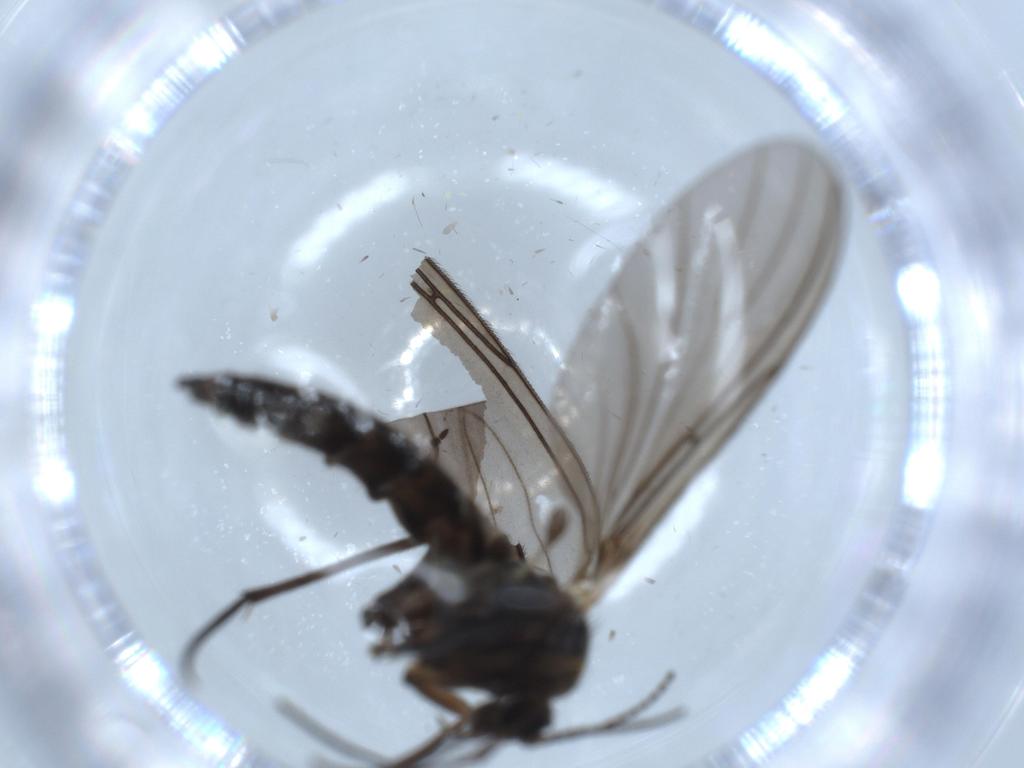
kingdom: Animalia
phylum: Arthropoda
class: Insecta
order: Diptera
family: Sciaridae
